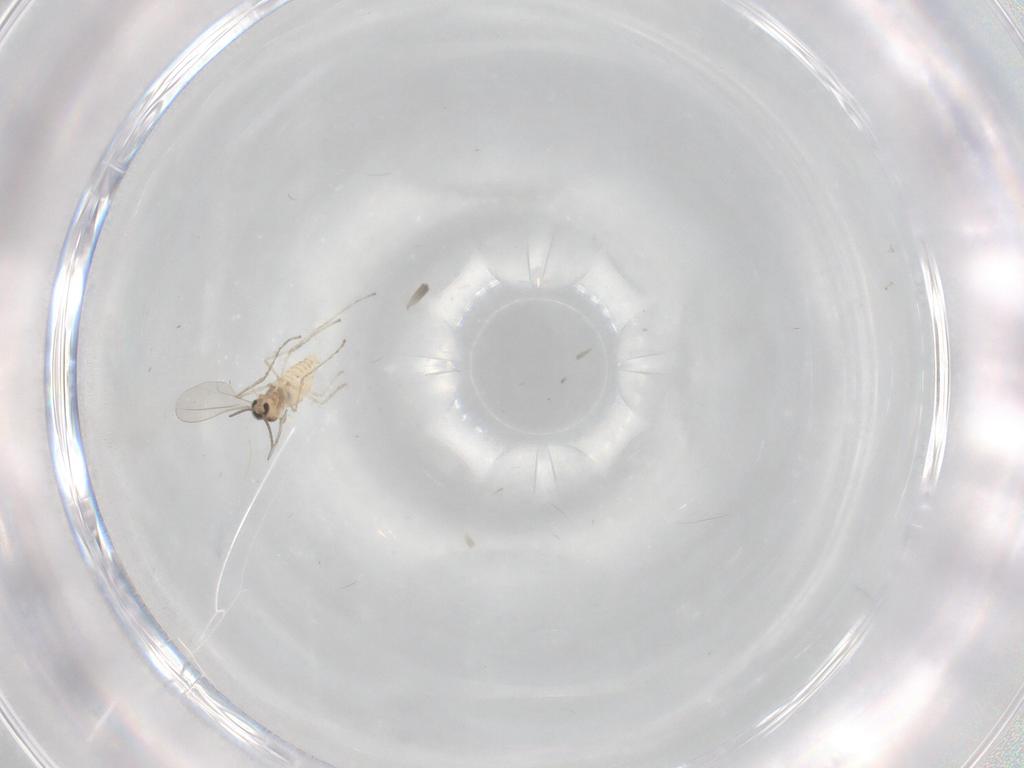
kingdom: Animalia
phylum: Arthropoda
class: Insecta
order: Diptera
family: Cecidomyiidae
